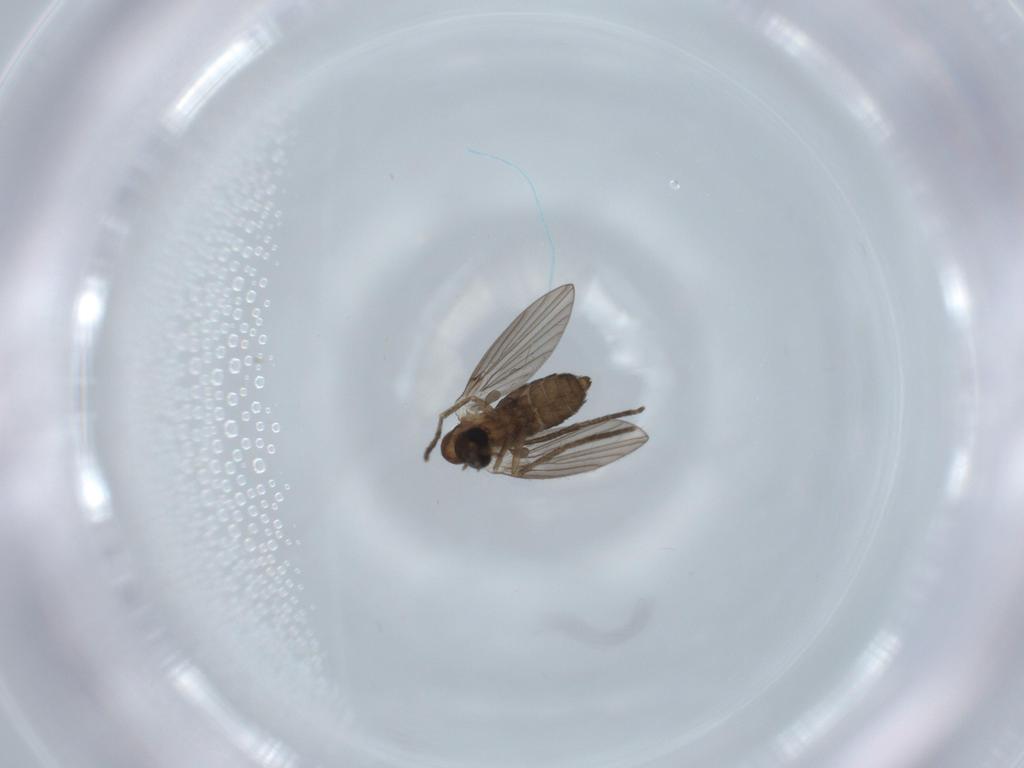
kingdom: Animalia
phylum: Arthropoda
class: Insecta
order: Diptera
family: Psychodidae
